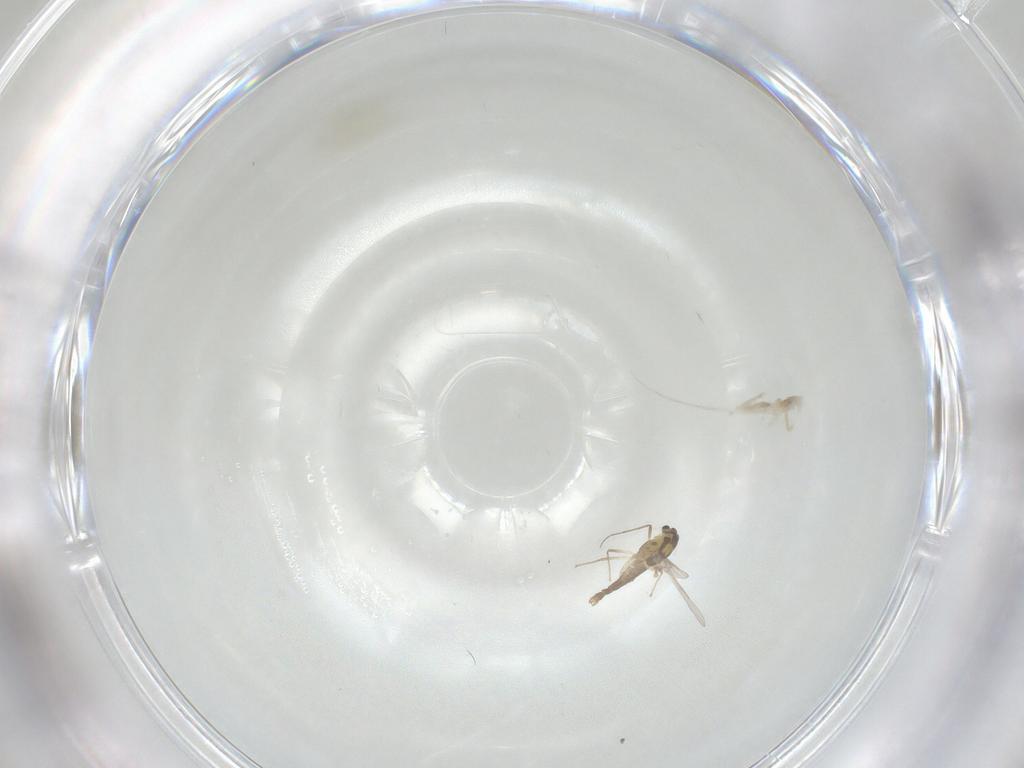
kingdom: Animalia
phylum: Arthropoda
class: Insecta
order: Diptera
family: Chironomidae
